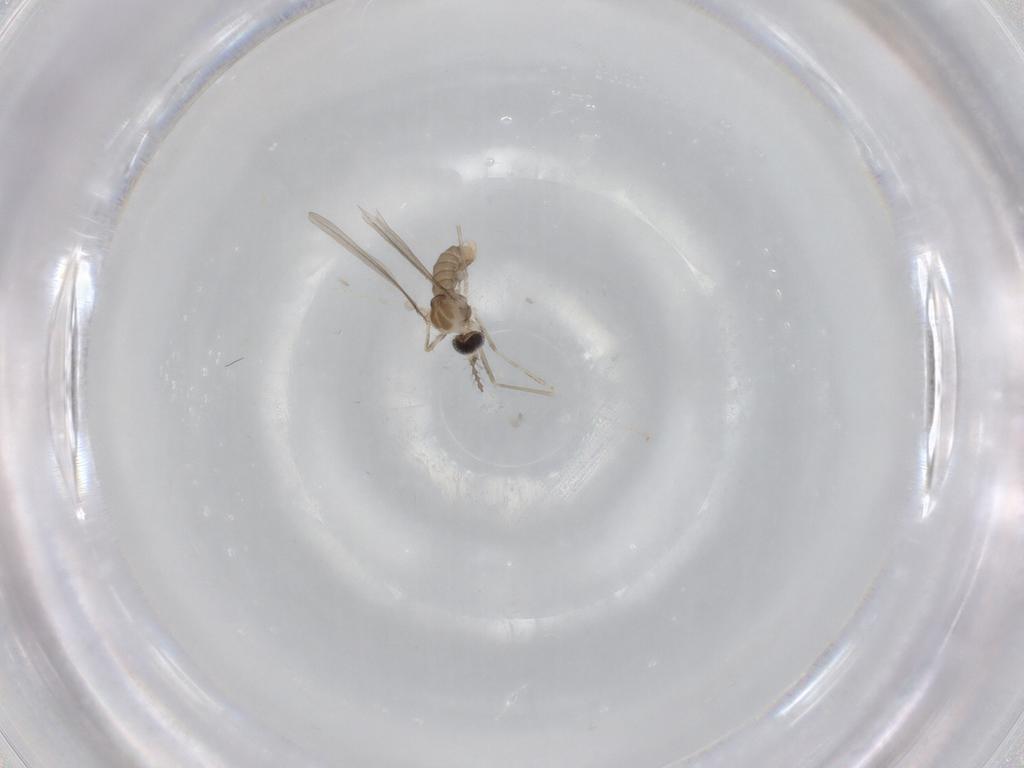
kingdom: Animalia
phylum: Arthropoda
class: Insecta
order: Diptera
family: Cecidomyiidae
